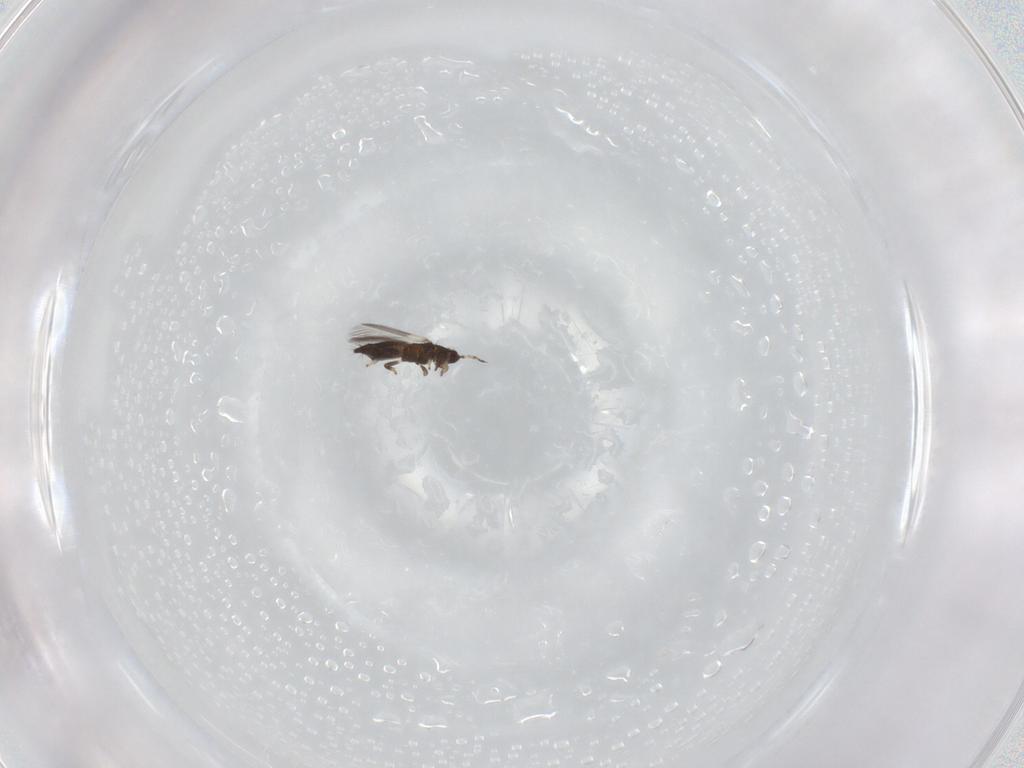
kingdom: Animalia
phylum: Arthropoda
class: Insecta
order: Thysanoptera
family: Thripidae
